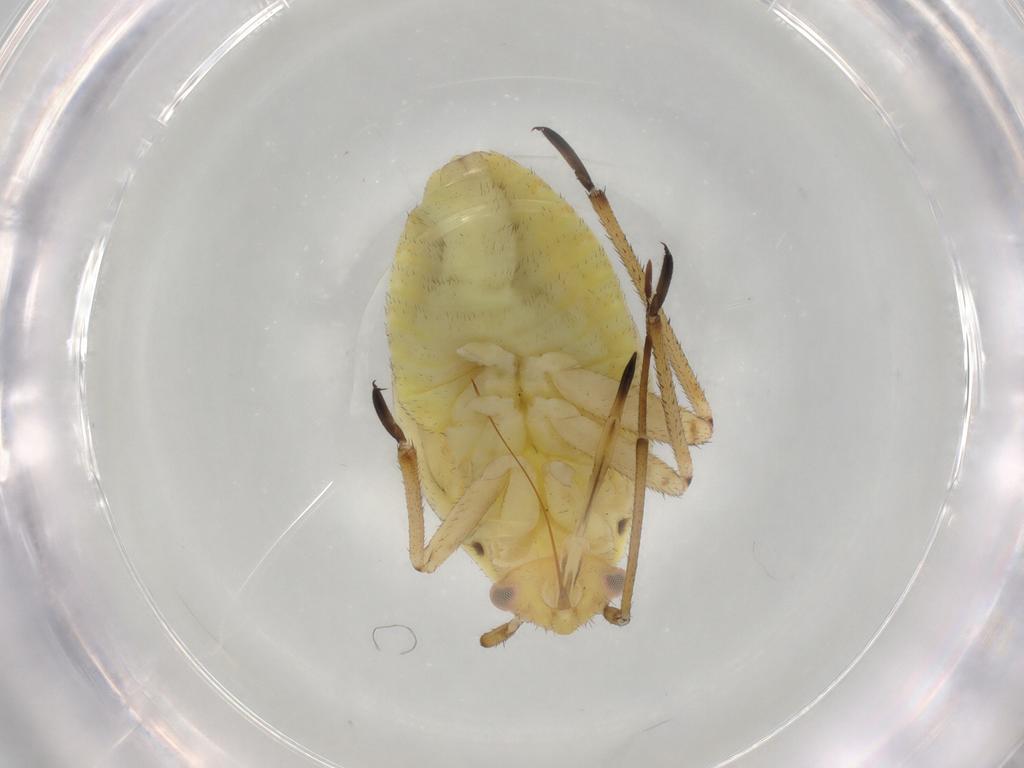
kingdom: Animalia
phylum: Arthropoda
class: Insecta
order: Hemiptera
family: Miridae
